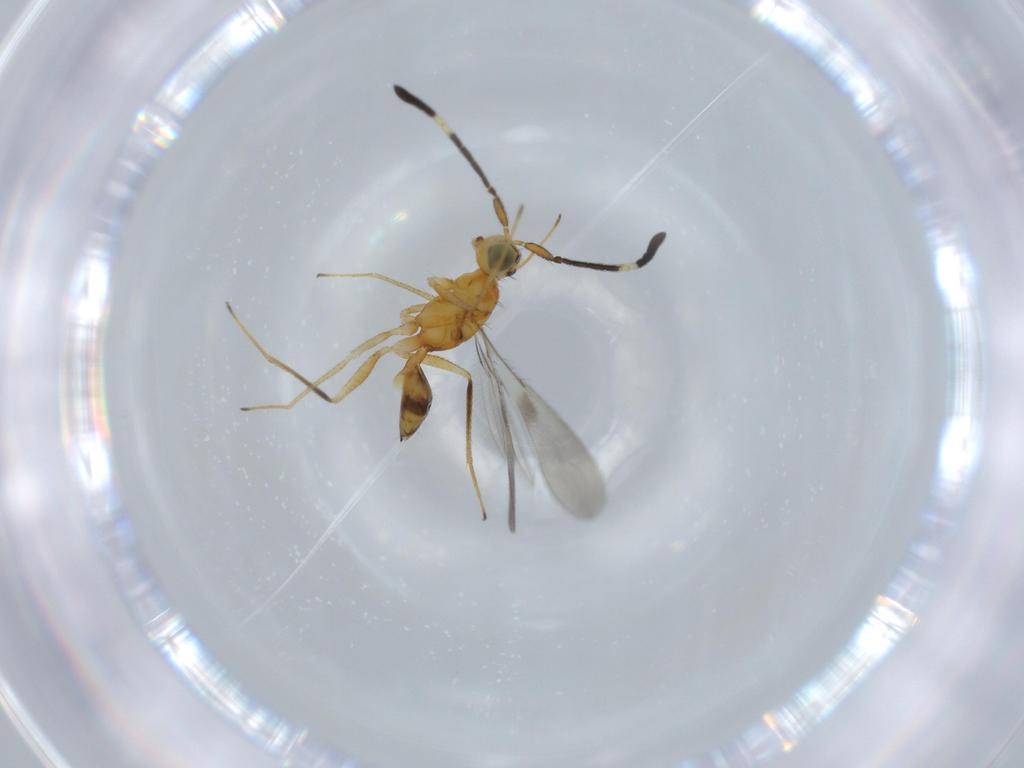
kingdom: Animalia
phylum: Arthropoda
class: Insecta
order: Hymenoptera
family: Mymaridae
